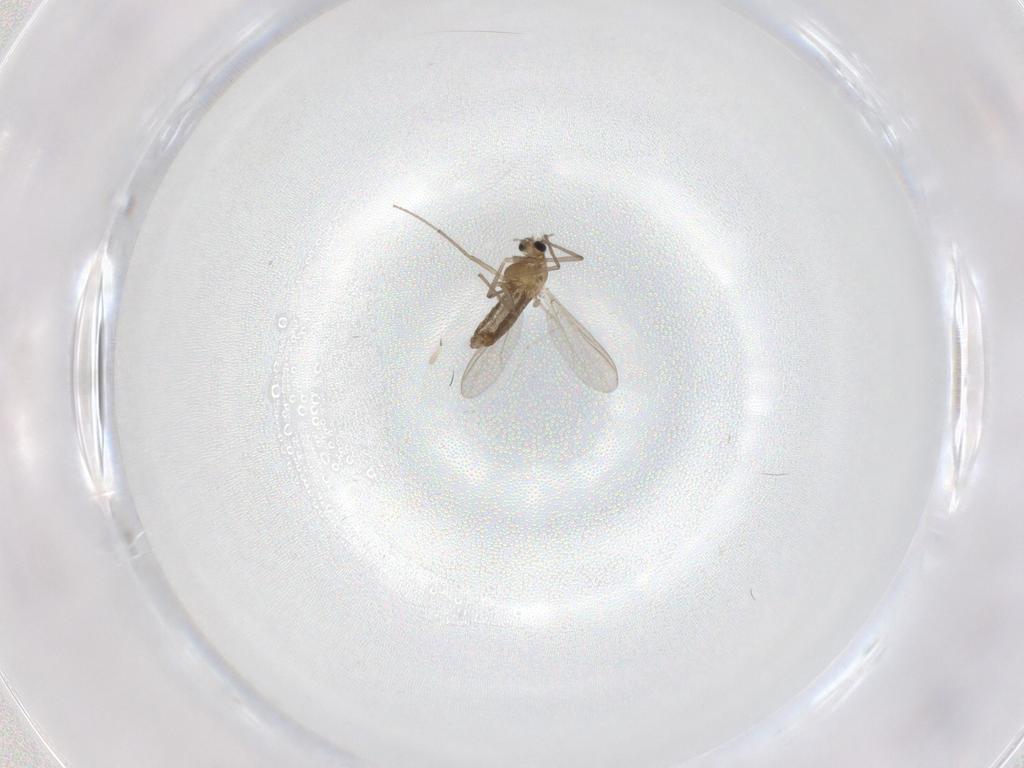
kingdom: Animalia
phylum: Arthropoda
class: Insecta
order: Diptera
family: Chironomidae
